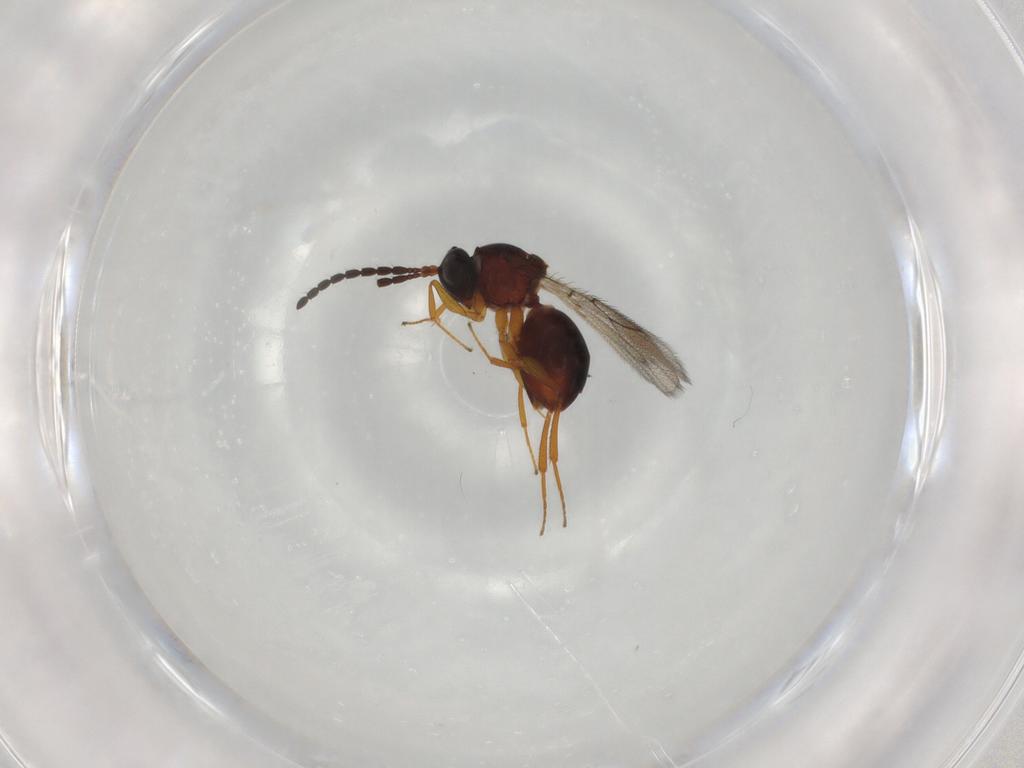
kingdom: Animalia
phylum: Arthropoda
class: Insecta
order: Hymenoptera
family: Figitidae
